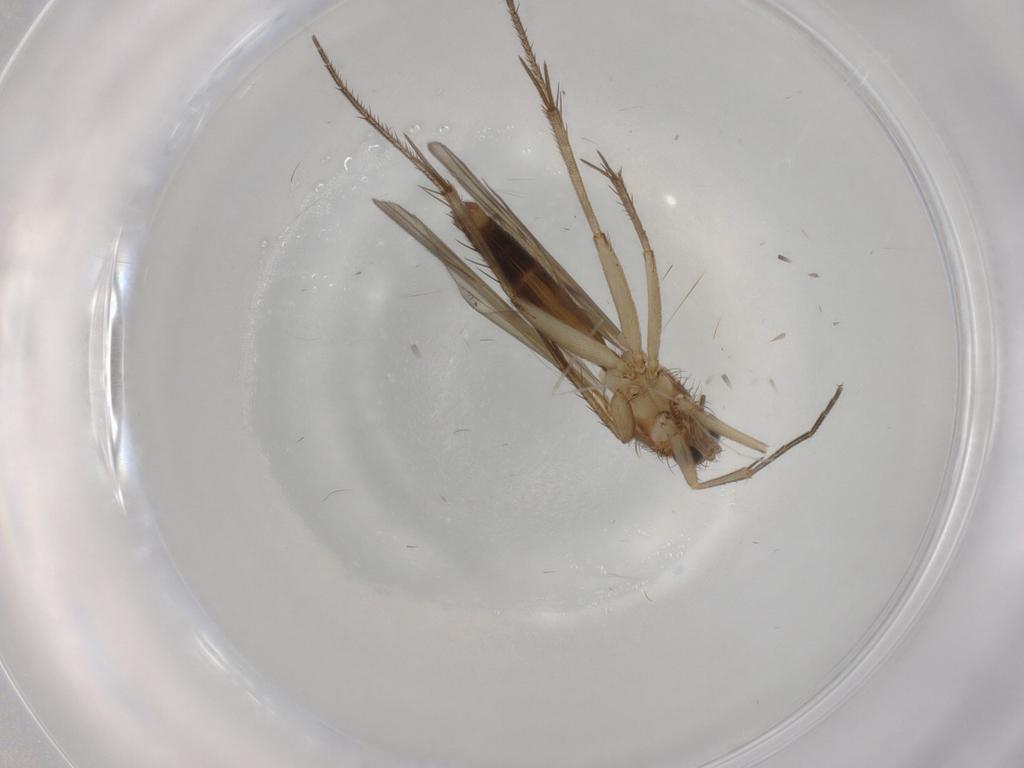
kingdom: Animalia
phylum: Arthropoda
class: Insecta
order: Diptera
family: Mycetophilidae
